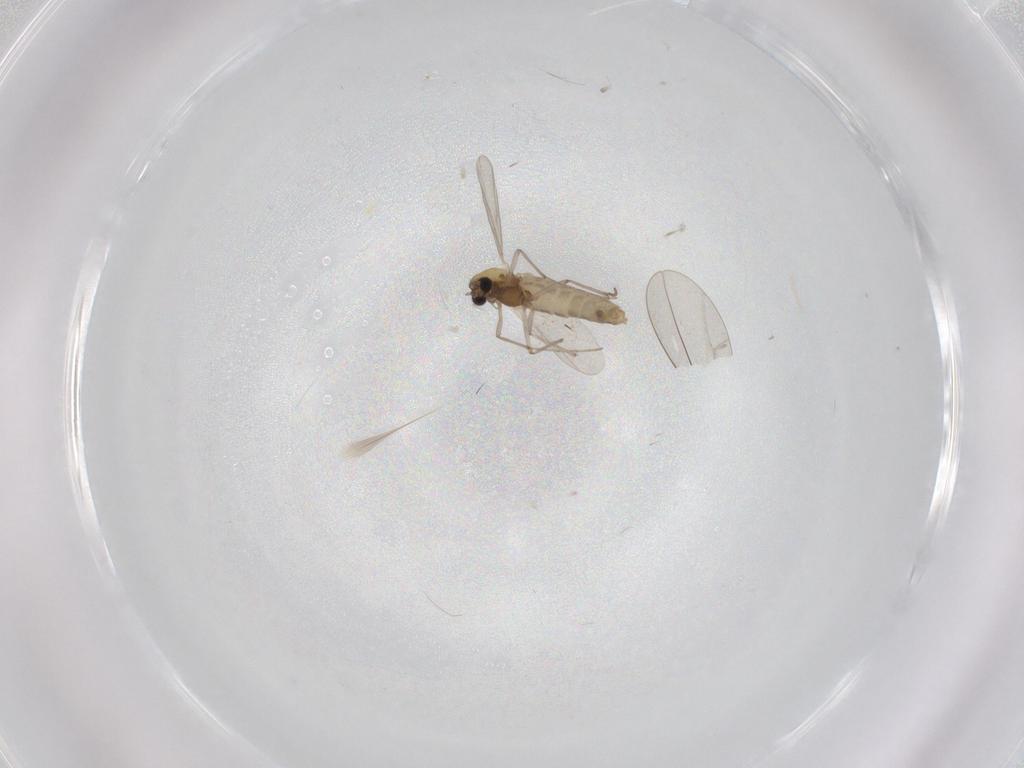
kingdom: Animalia
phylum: Arthropoda
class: Insecta
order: Diptera
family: Chironomidae
